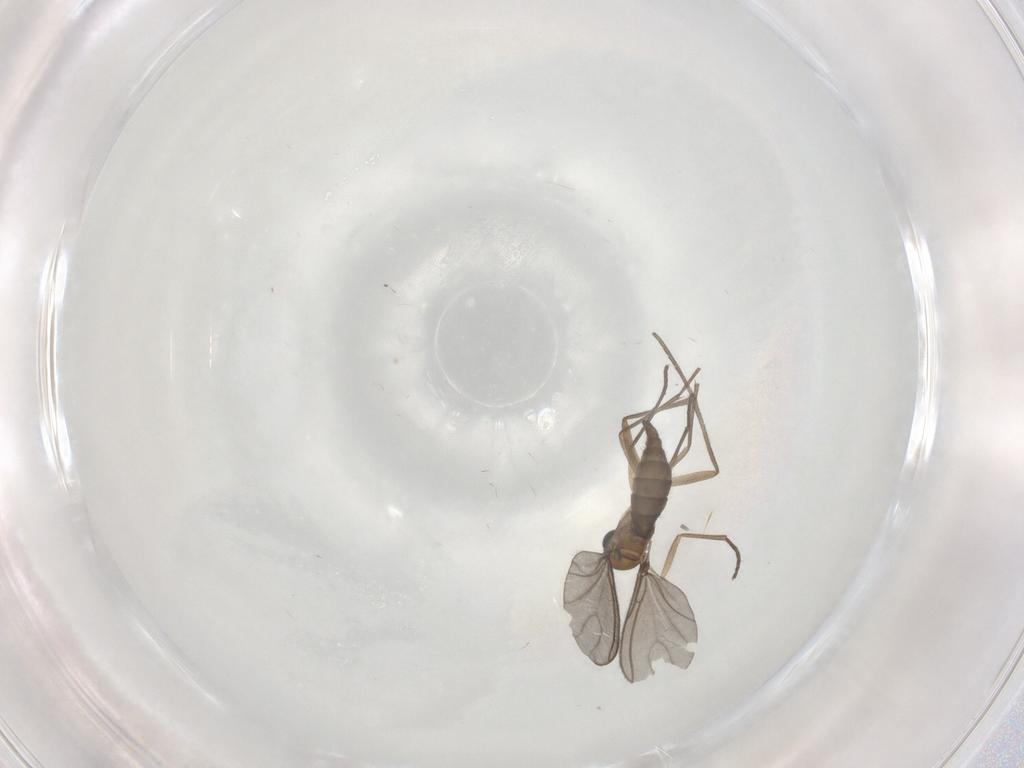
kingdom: Animalia
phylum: Arthropoda
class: Insecta
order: Diptera
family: Sciaridae
